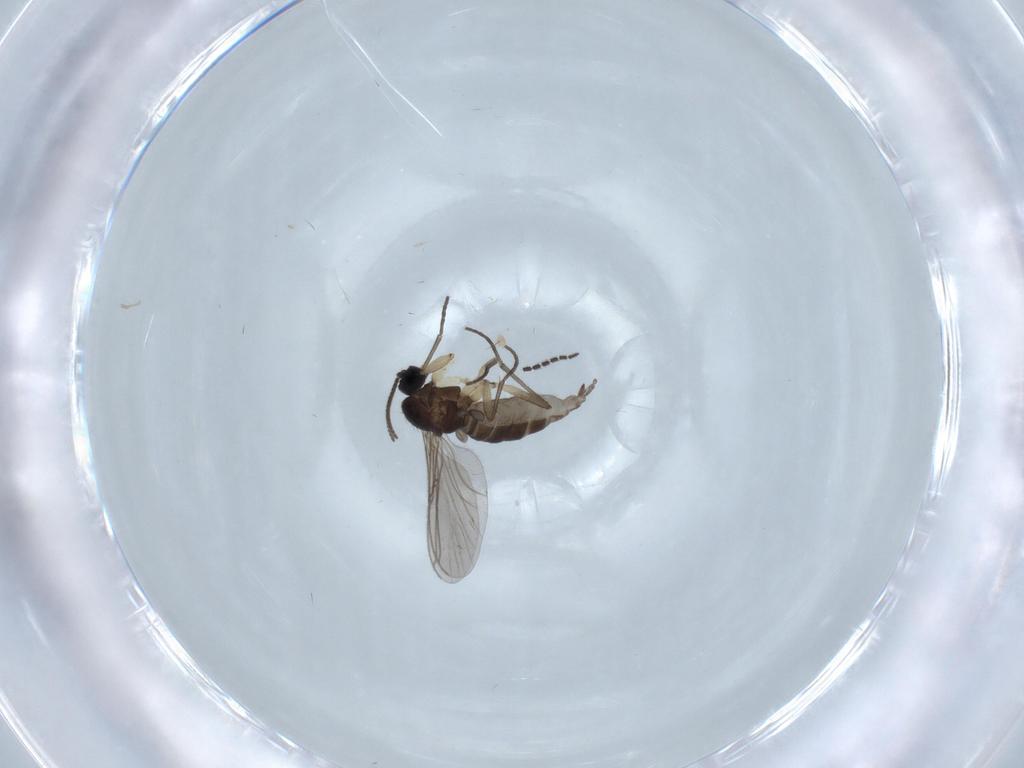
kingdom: Animalia
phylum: Arthropoda
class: Insecta
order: Diptera
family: Sciaridae
